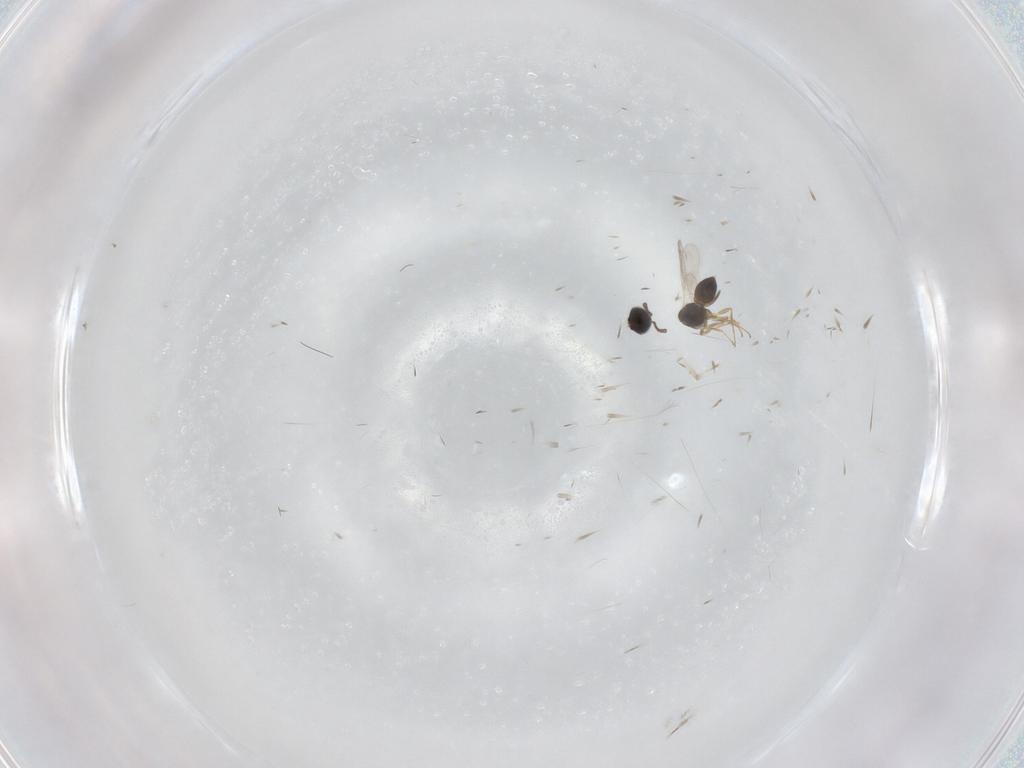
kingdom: Animalia
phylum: Arthropoda
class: Insecta
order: Hymenoptera
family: Scelionidae
